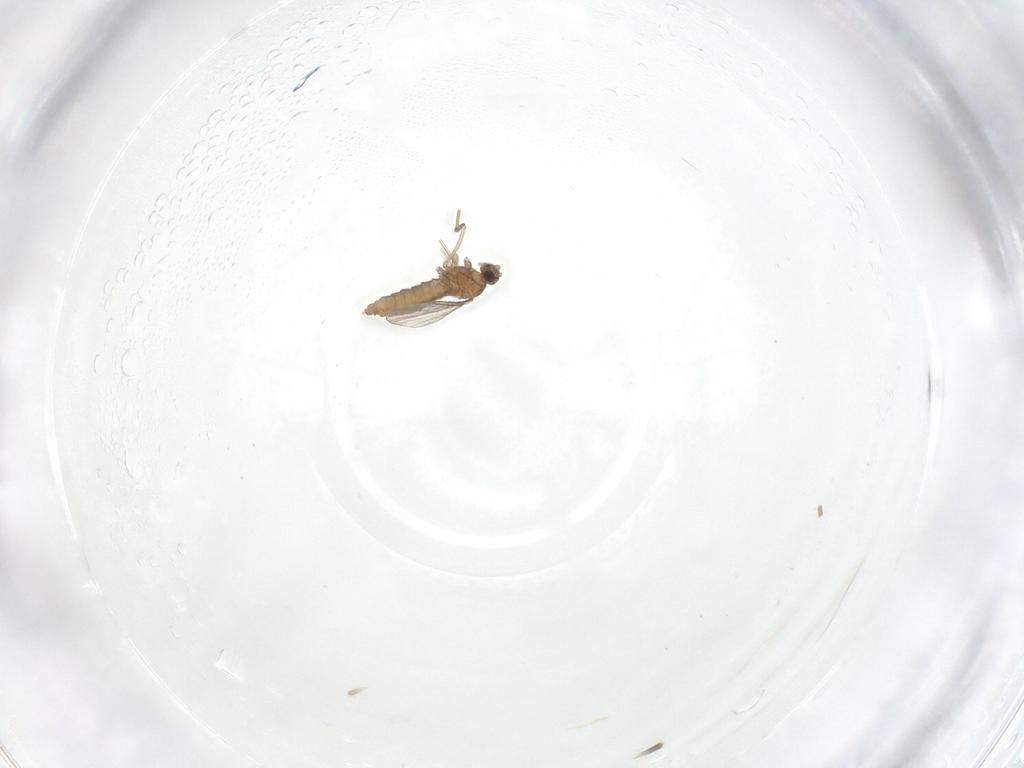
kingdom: Animalia
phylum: Arthropoda
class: Insecta
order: Diptera
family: Cecidomyiidae
